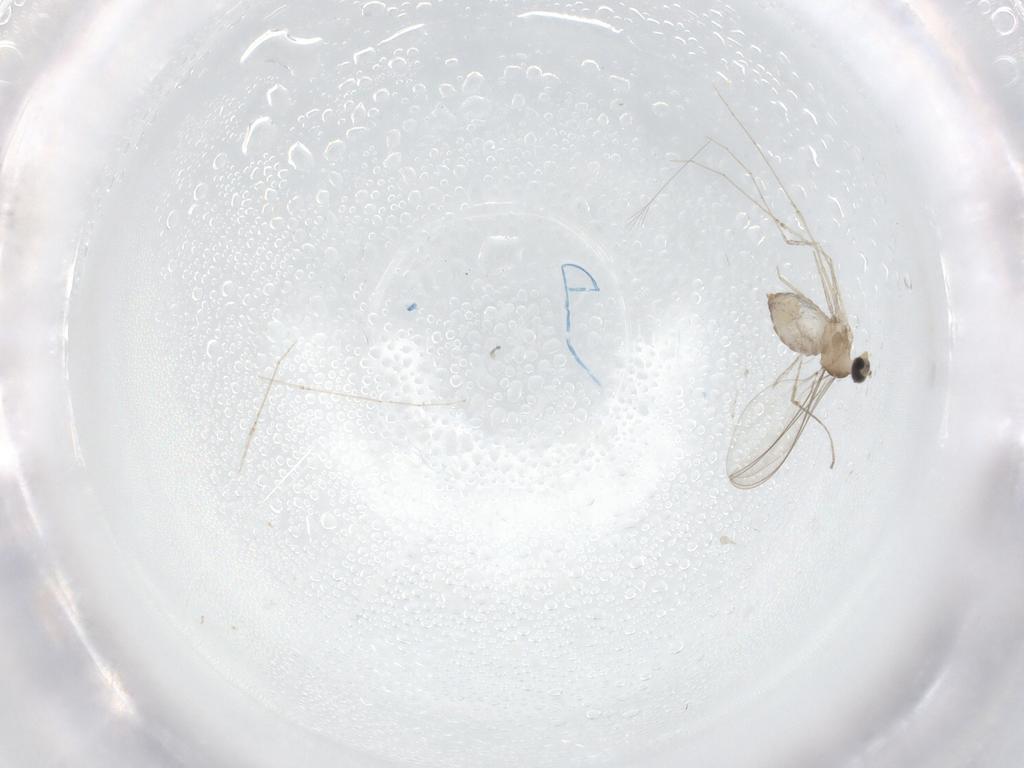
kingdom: Animalia
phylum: Arthropoda
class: Insecta
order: Diptera
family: Cecidomyiidae
